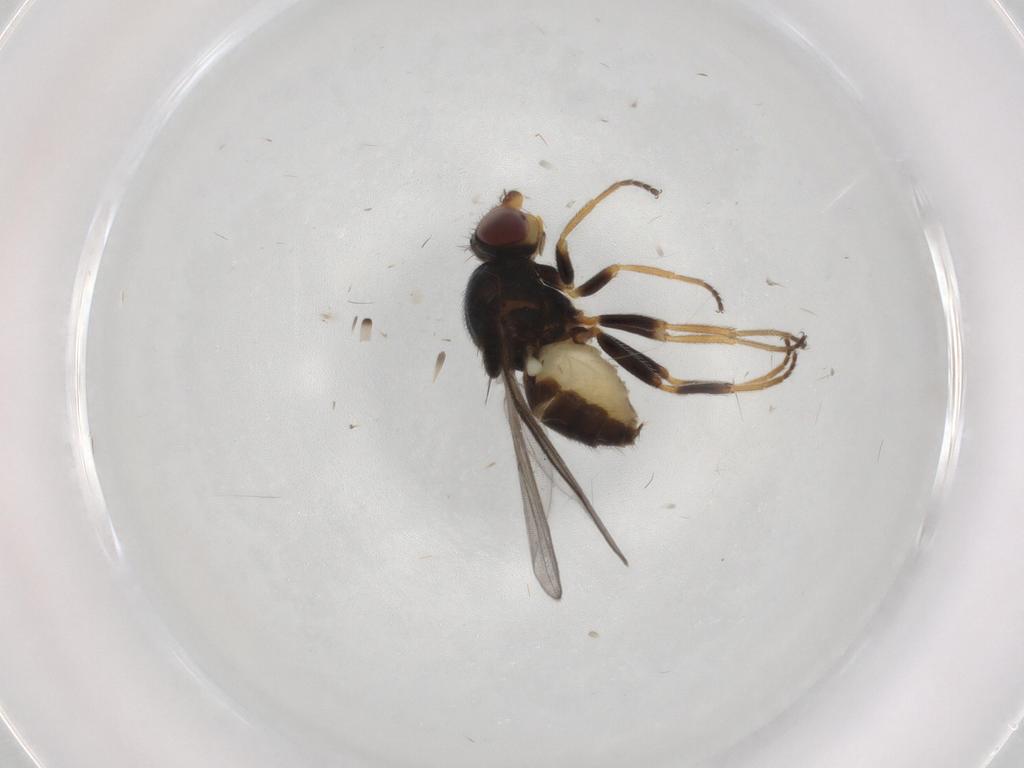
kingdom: Animalia
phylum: Arthropoda
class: Insecta
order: Diptera
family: Chloropidae
